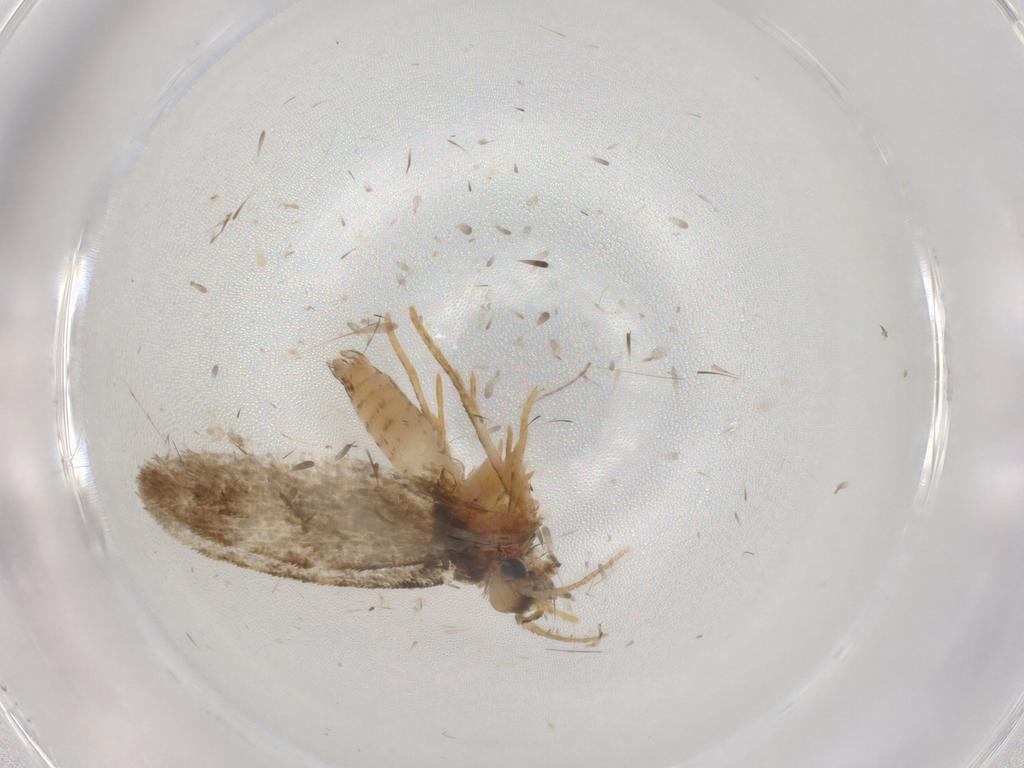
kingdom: Animalia
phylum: Arthropoda
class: Insecta
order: Lepidoptera
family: Psychidae
